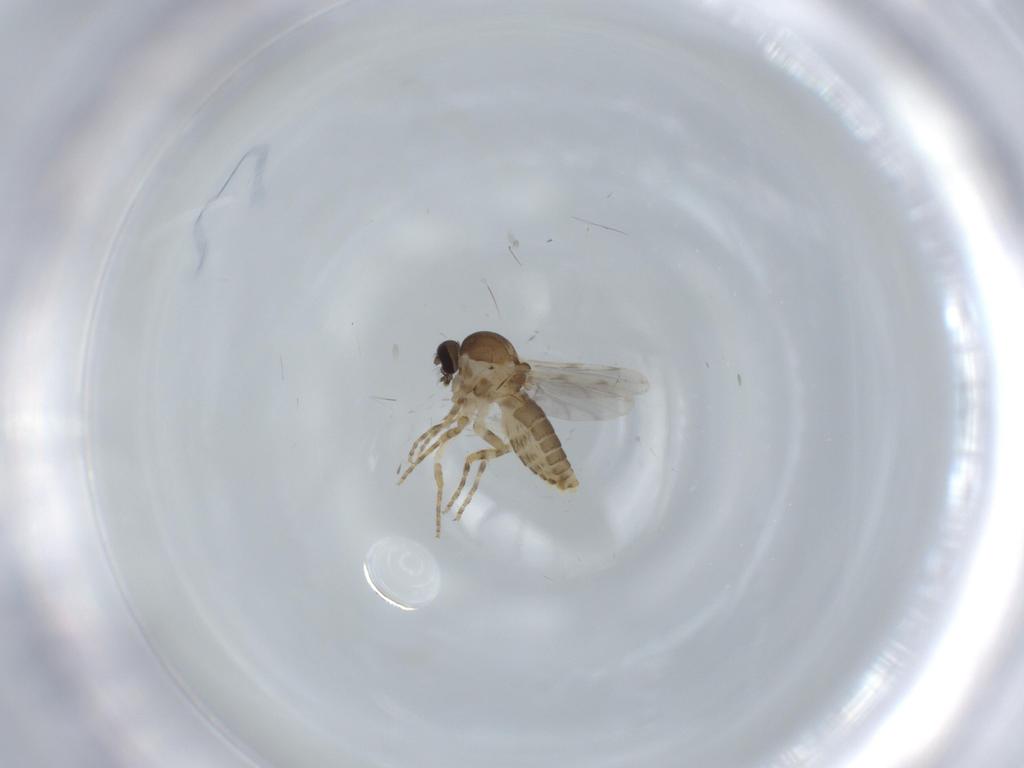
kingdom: Animalia
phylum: Arthropoda
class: Insecta
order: Diptera
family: Ceratopogonidae
